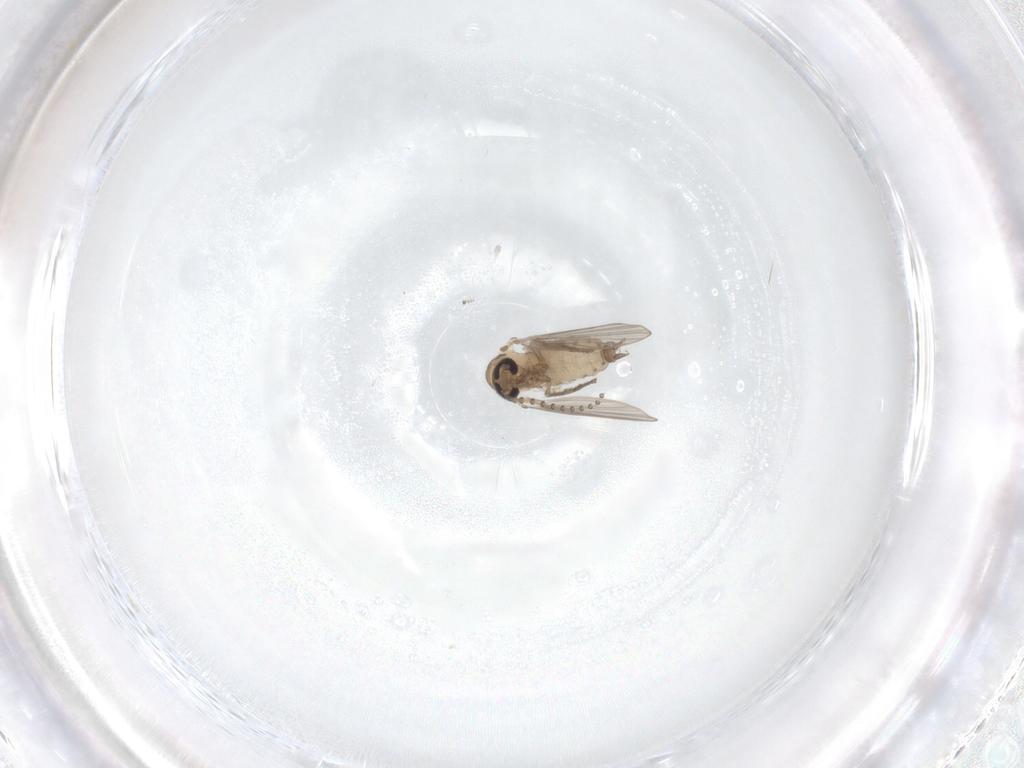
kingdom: Animalia
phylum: Arthropoda
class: Insecta
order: Diptera
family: Psychodidae
